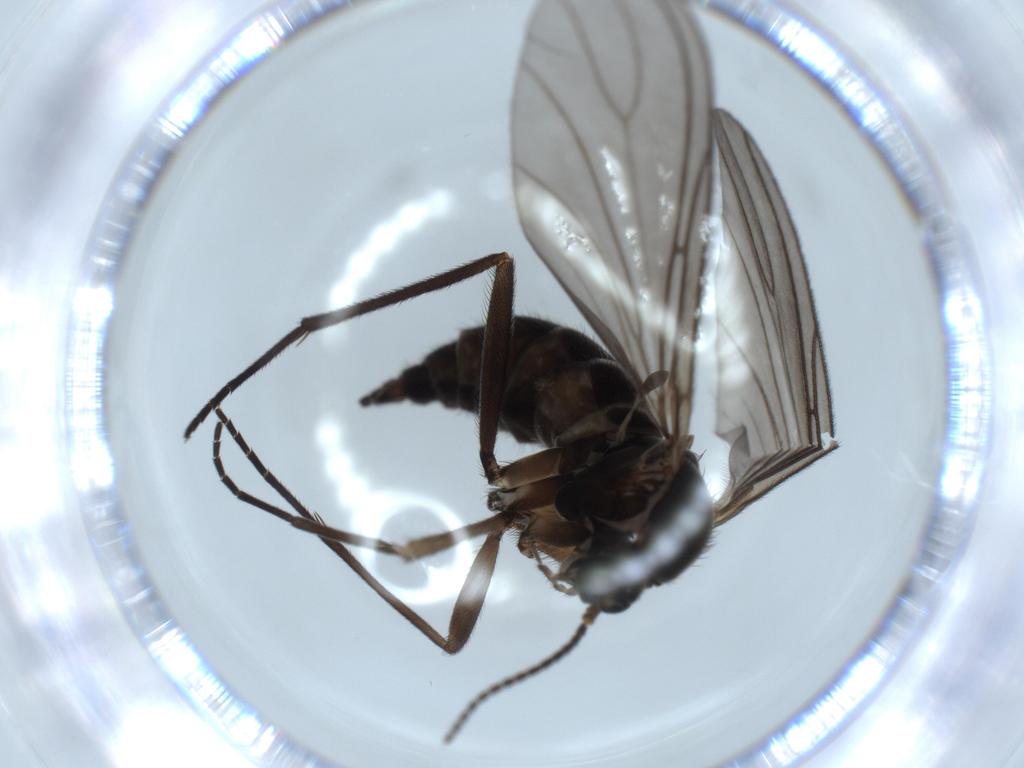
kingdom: Animalia
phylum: Arthropoda
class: Insecta
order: Diptera
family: Sciaridae
